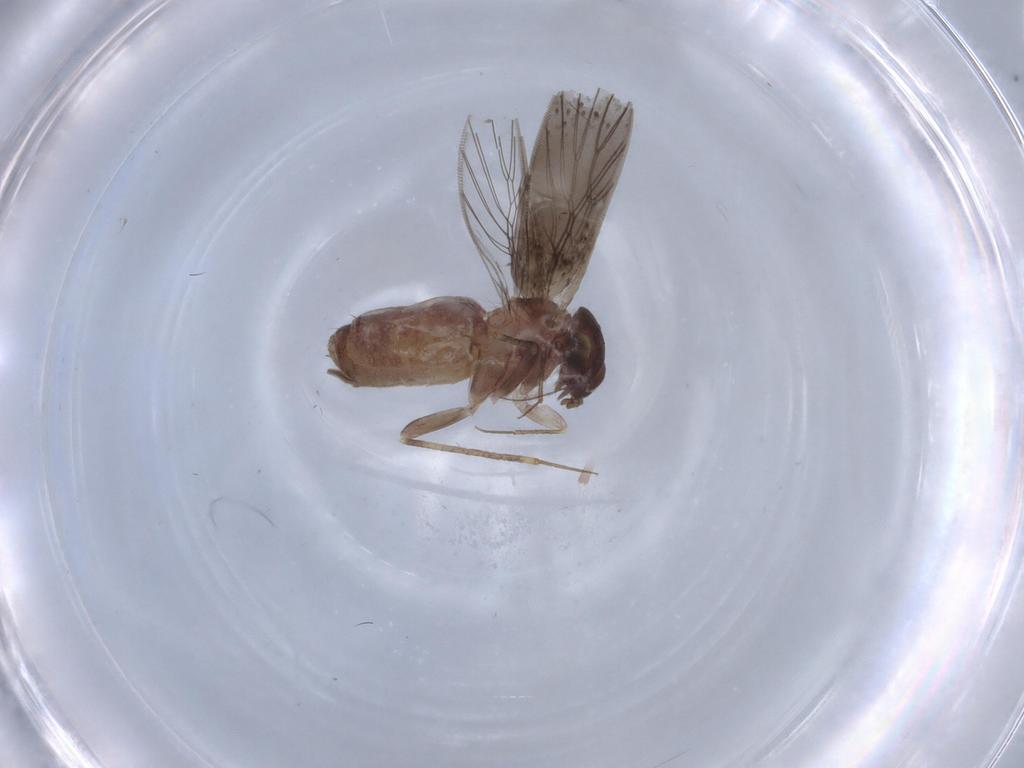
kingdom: Animalia
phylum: Arthropoda
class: Insecta
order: Psocodea
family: Lepidopsocidae
